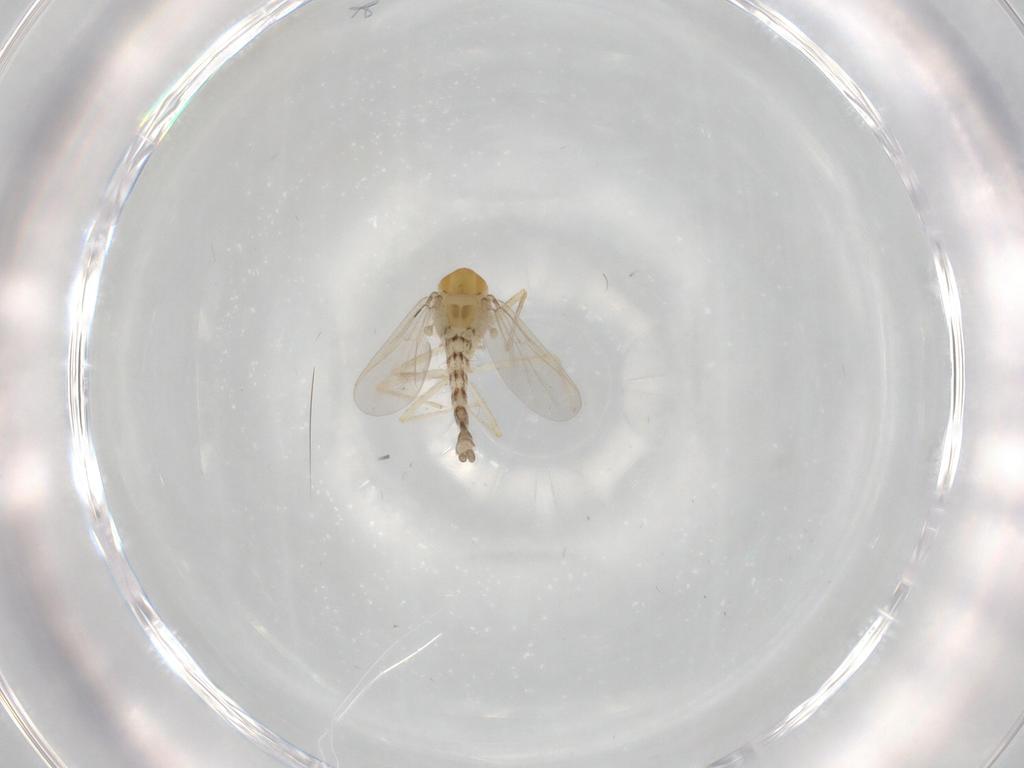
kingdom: Animalia
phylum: Arthropoda
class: Insecta
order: Diptera
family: Chironomidae
